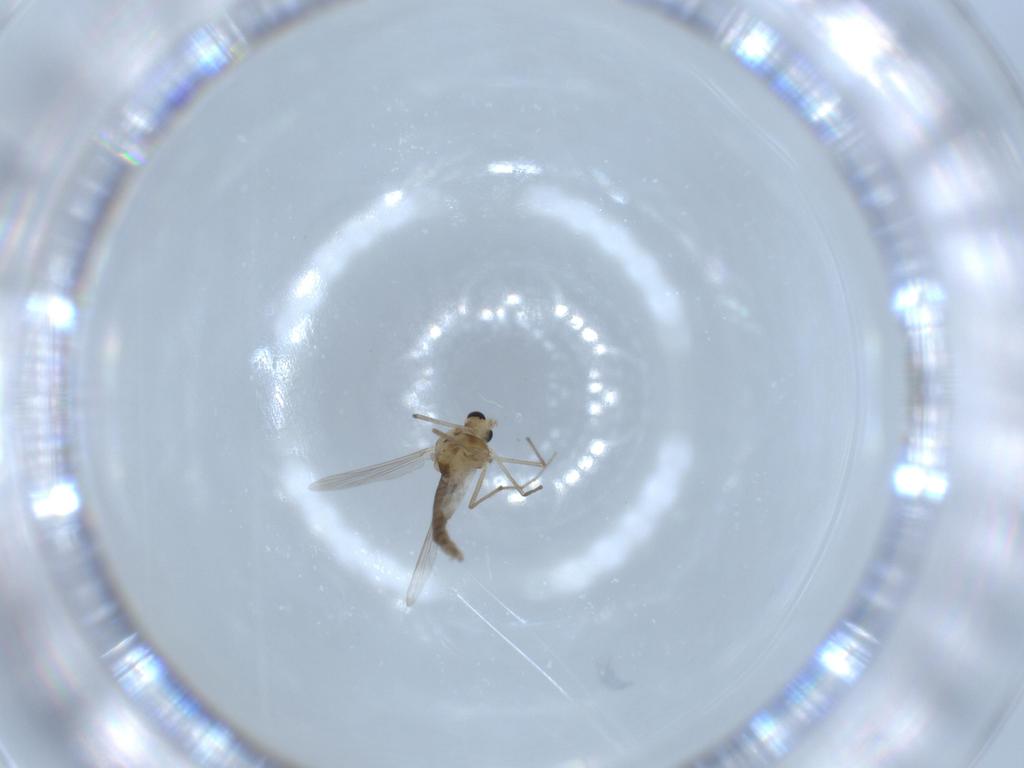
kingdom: Animalia
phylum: Arthropoda
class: Insecta
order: Diptera
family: Chironomidae
